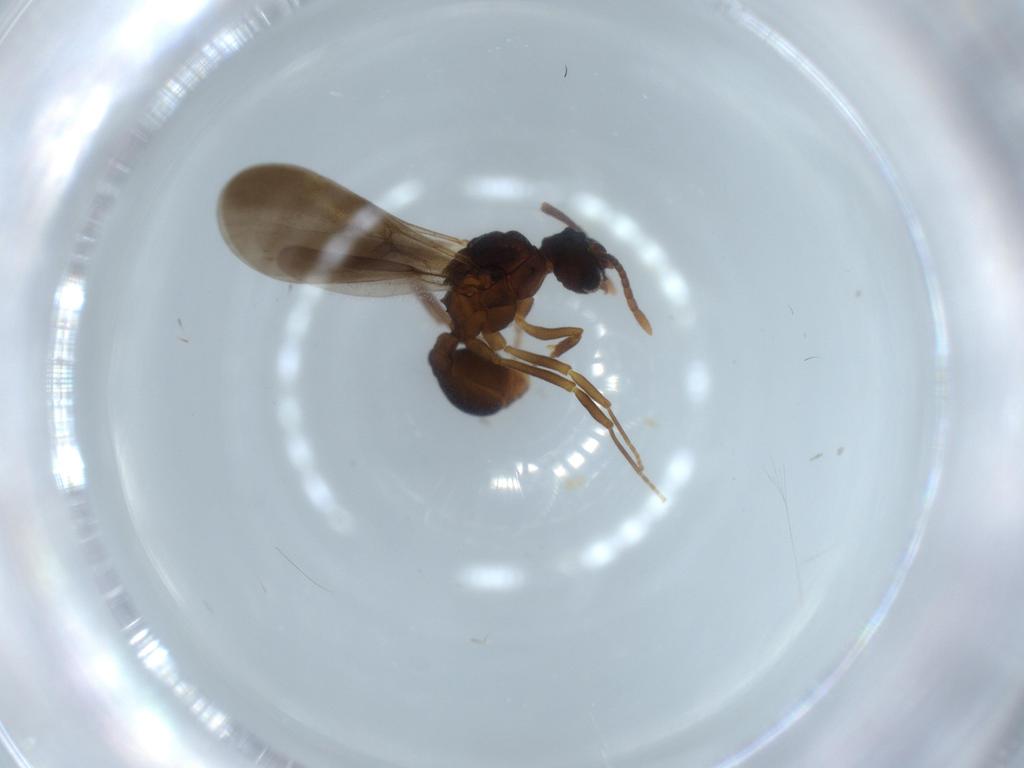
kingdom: Animalia
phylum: Arthropoda
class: Insecta
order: Hymenoptera
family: Formicidae
